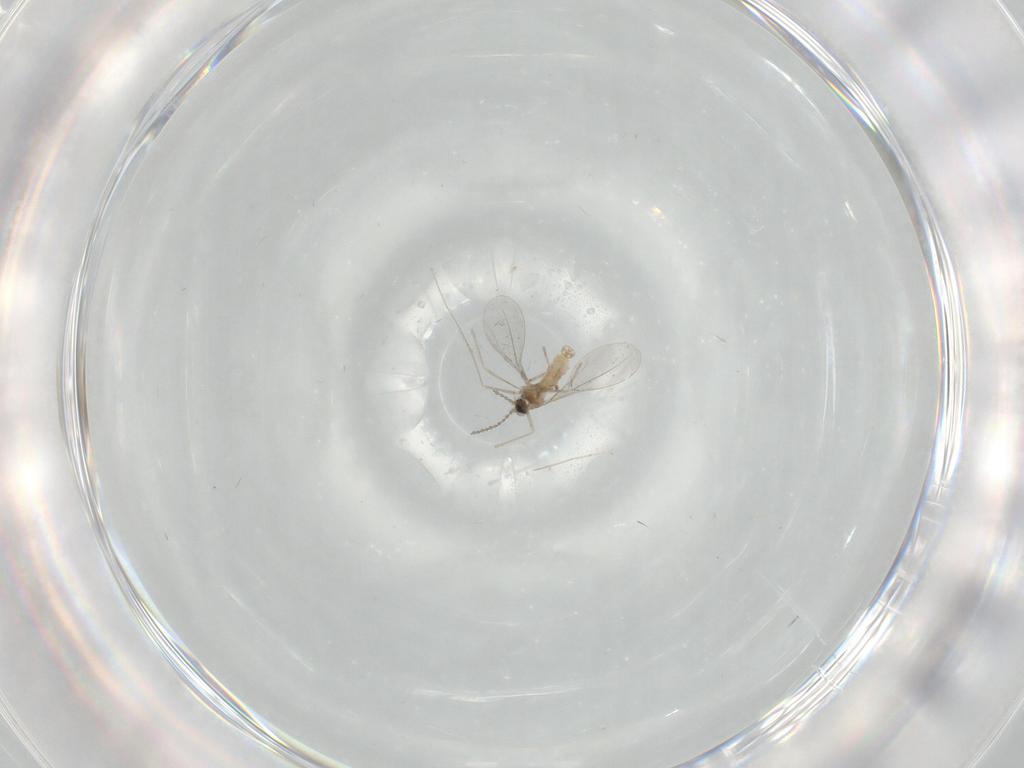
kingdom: Animalia
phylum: Arthropoda
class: Insecta
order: Diptera
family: Cecidomyiidae
